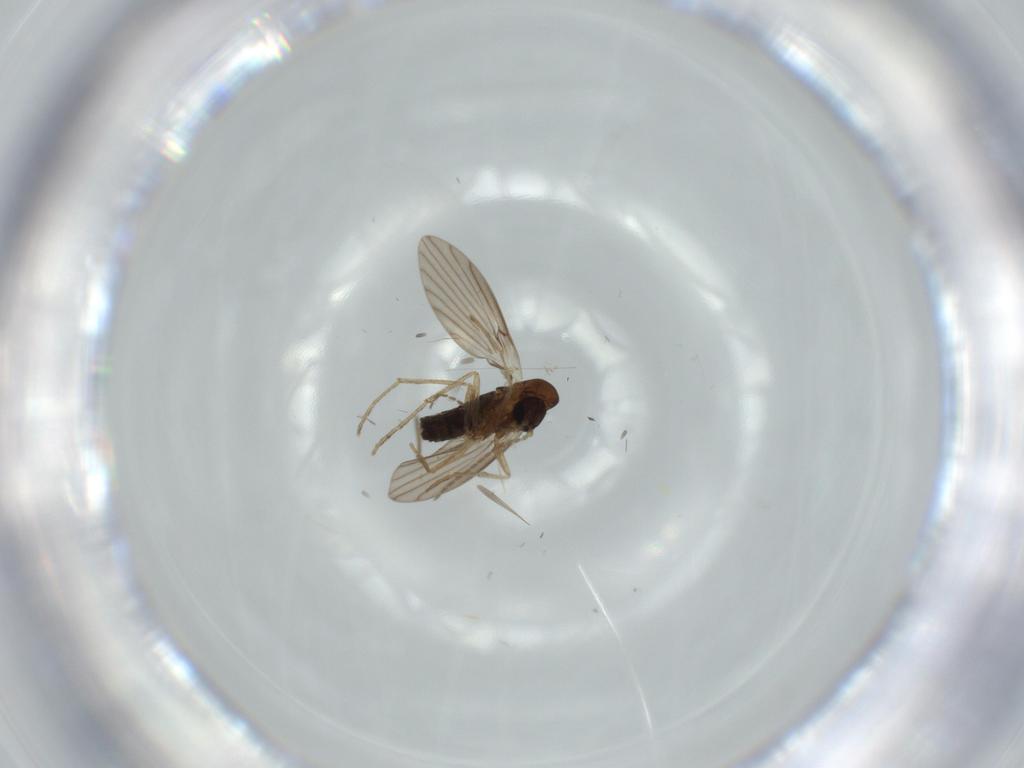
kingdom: Animalia
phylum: Arthropoda
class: Insecta
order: Diptera
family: Psychodidae
